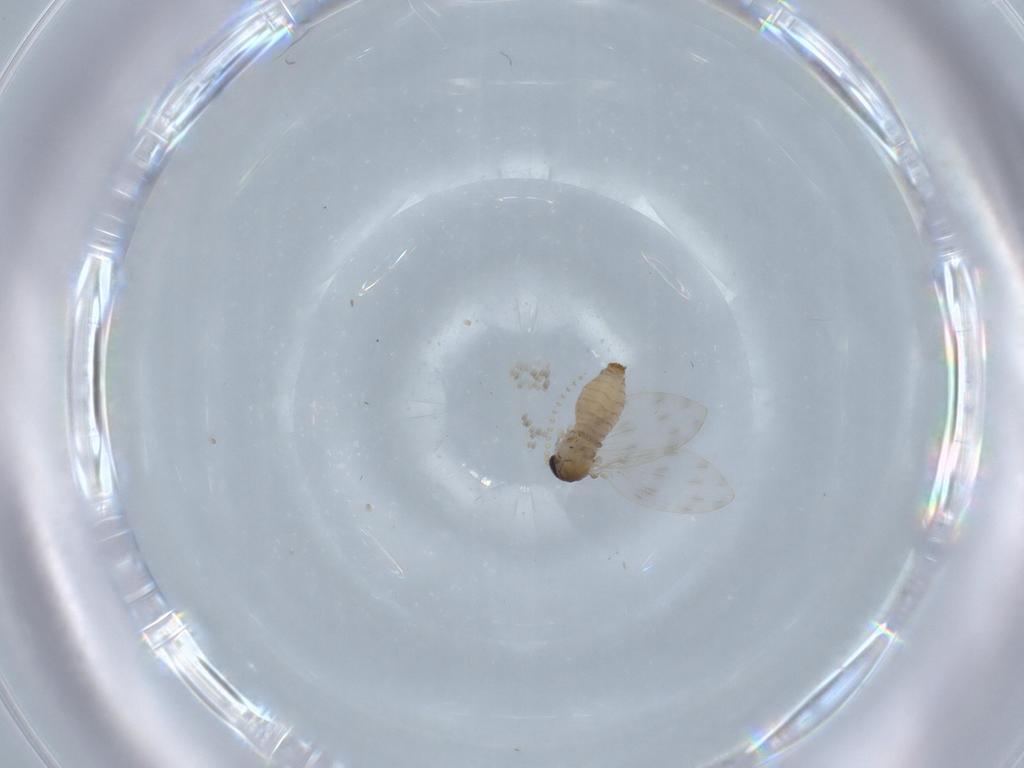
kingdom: Animalia
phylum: Arthropoda
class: Insecta
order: Diptera
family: Psychodidae
